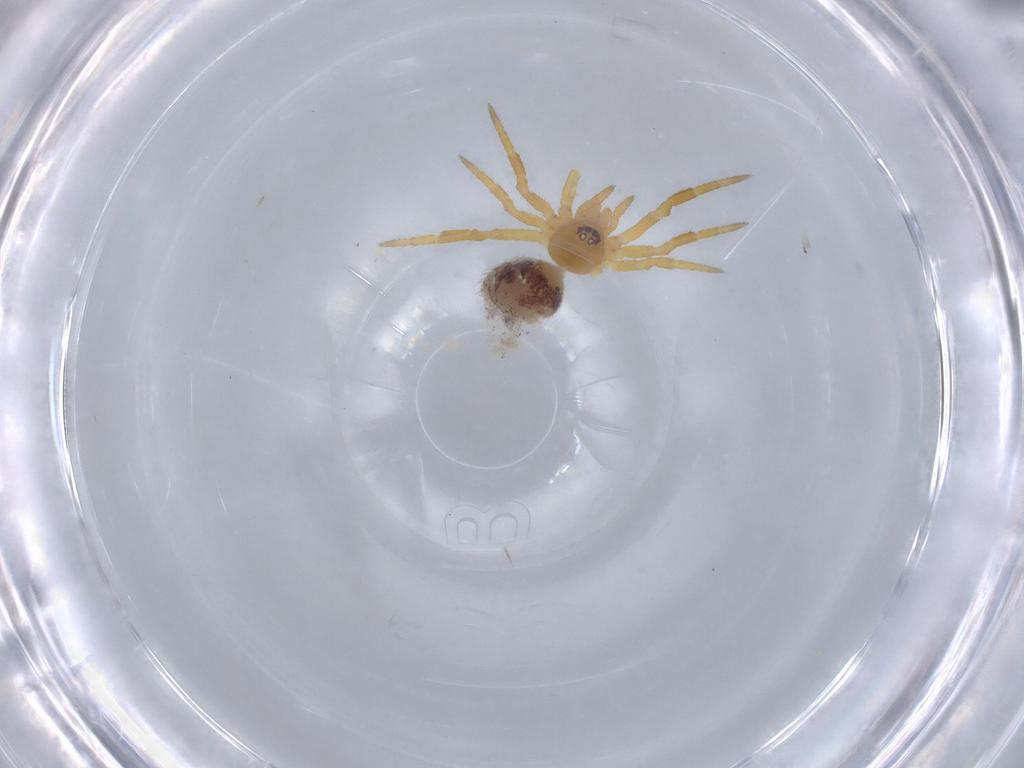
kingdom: Animalia
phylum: Arthropoda
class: Arachnida
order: Araneae
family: Theridiidae
